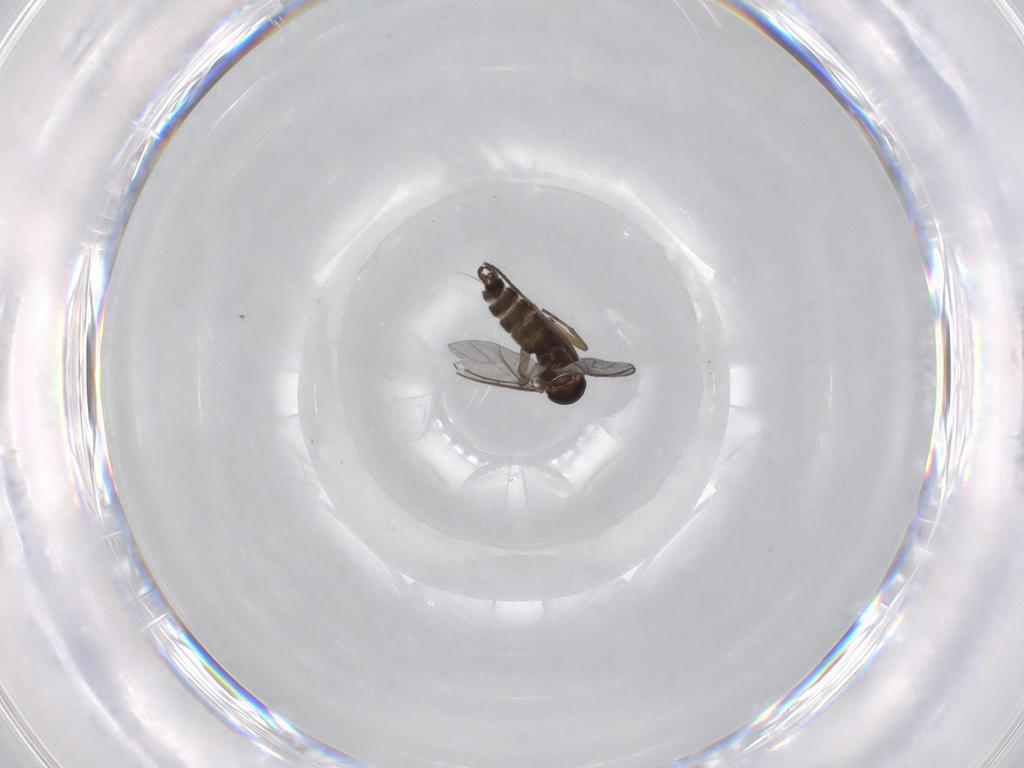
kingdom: Animalia
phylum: Arthropoda
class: Insecta
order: Diptera
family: Sciaridae
